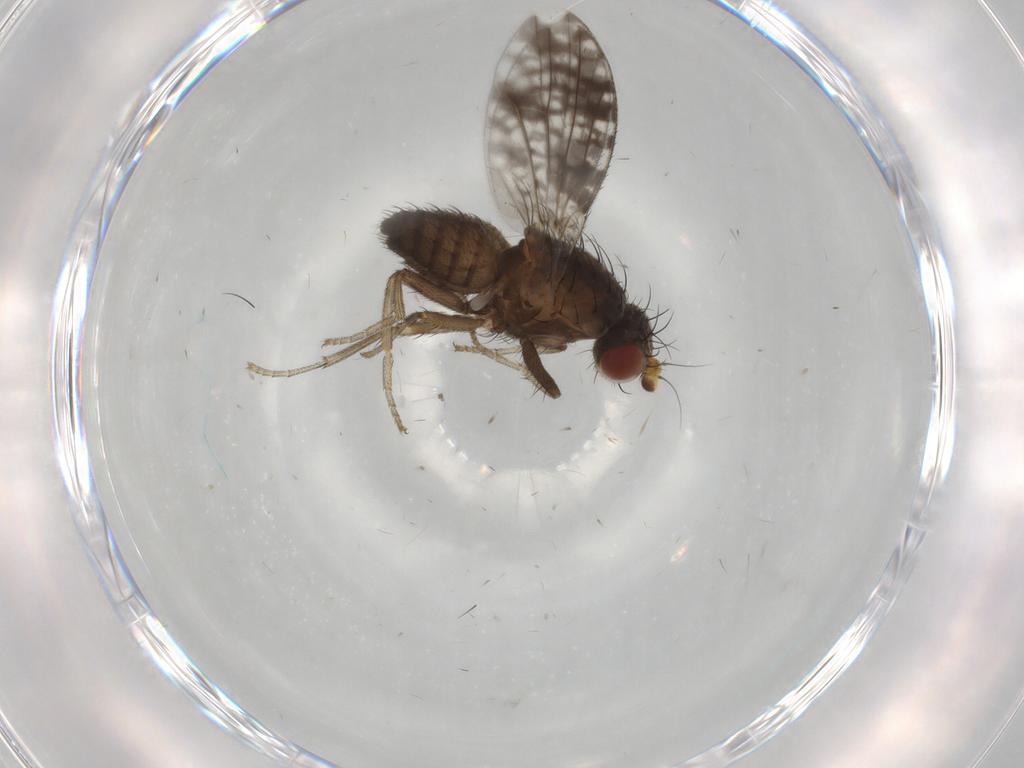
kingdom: Animalia
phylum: Arthropoda
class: Insecta
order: Diptera
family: Tephritidae
